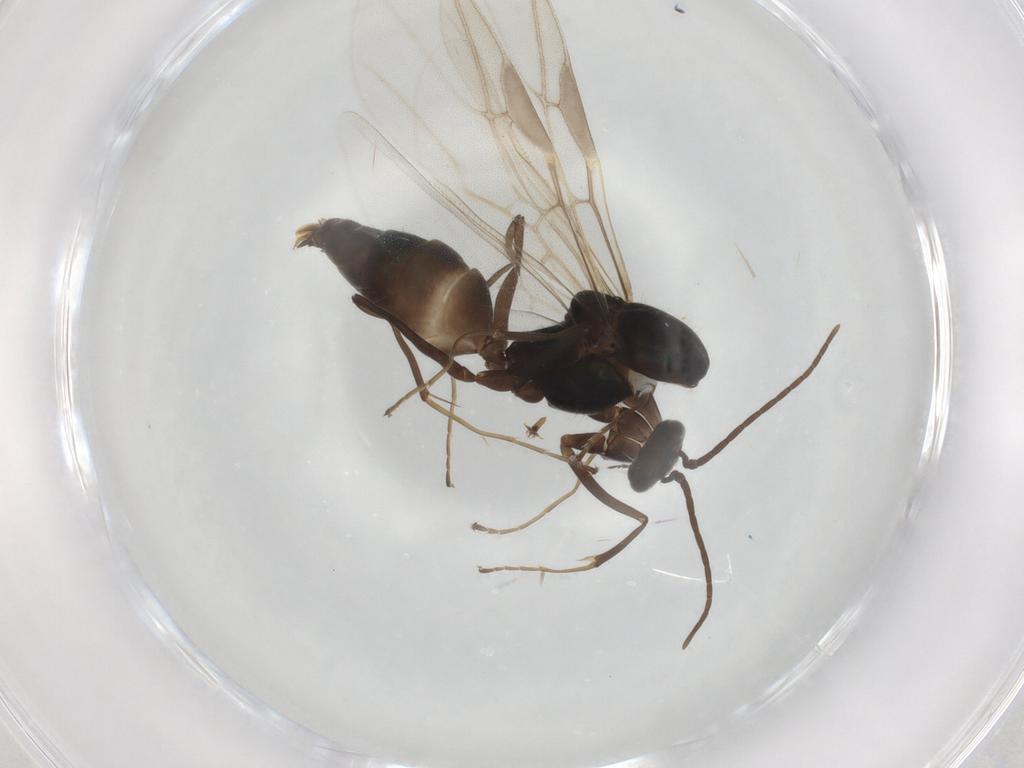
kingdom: Animalia
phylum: Arthropoda
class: Insecta
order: Hymenoptera
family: Formicidae
